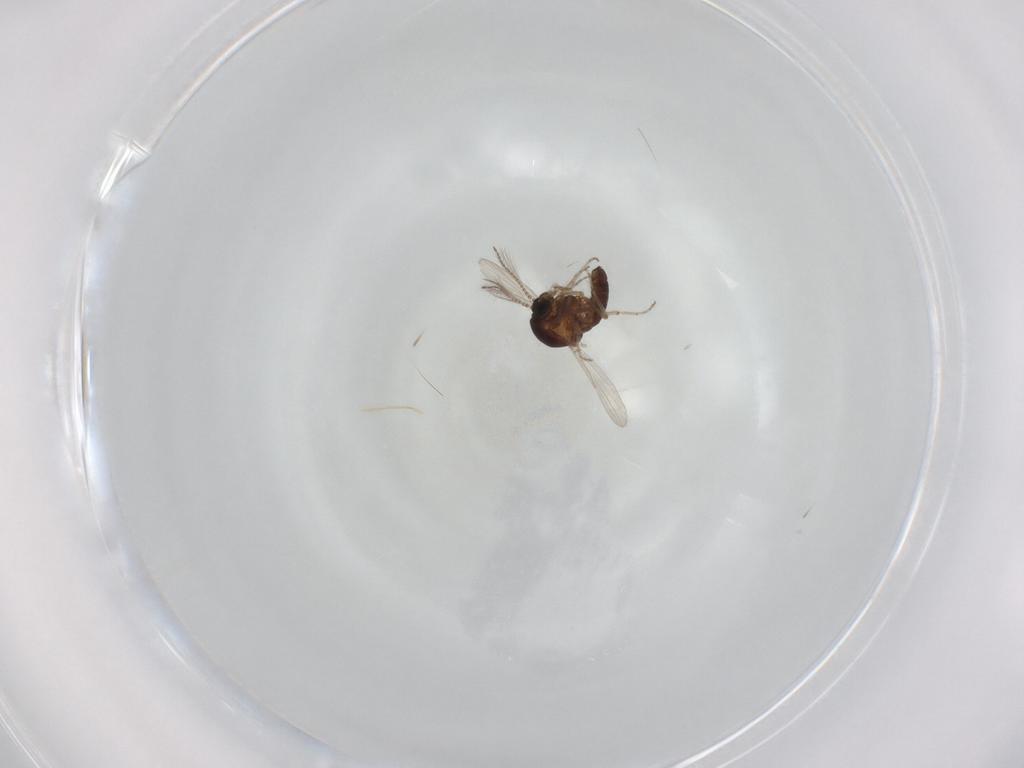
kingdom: Animalia
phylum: Arthropoda
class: Insecta
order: Diptera
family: Ceratopogonidae
